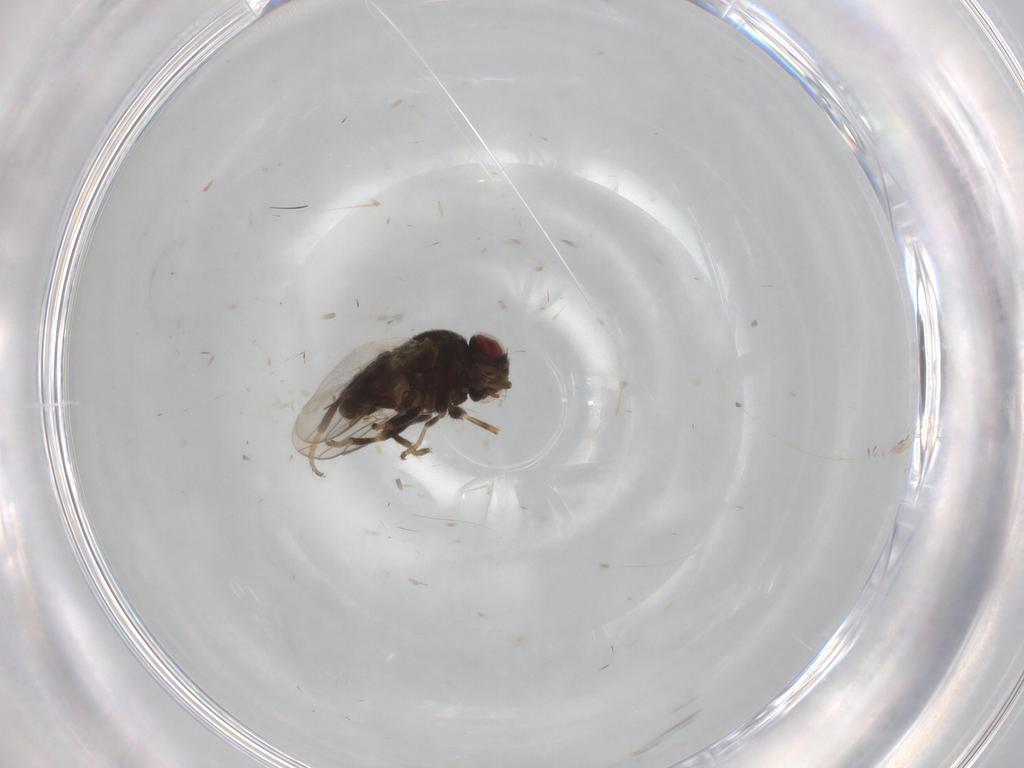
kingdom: Animalia
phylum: Arthropoda
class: Insecta
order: Diptera
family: Chloropidae
